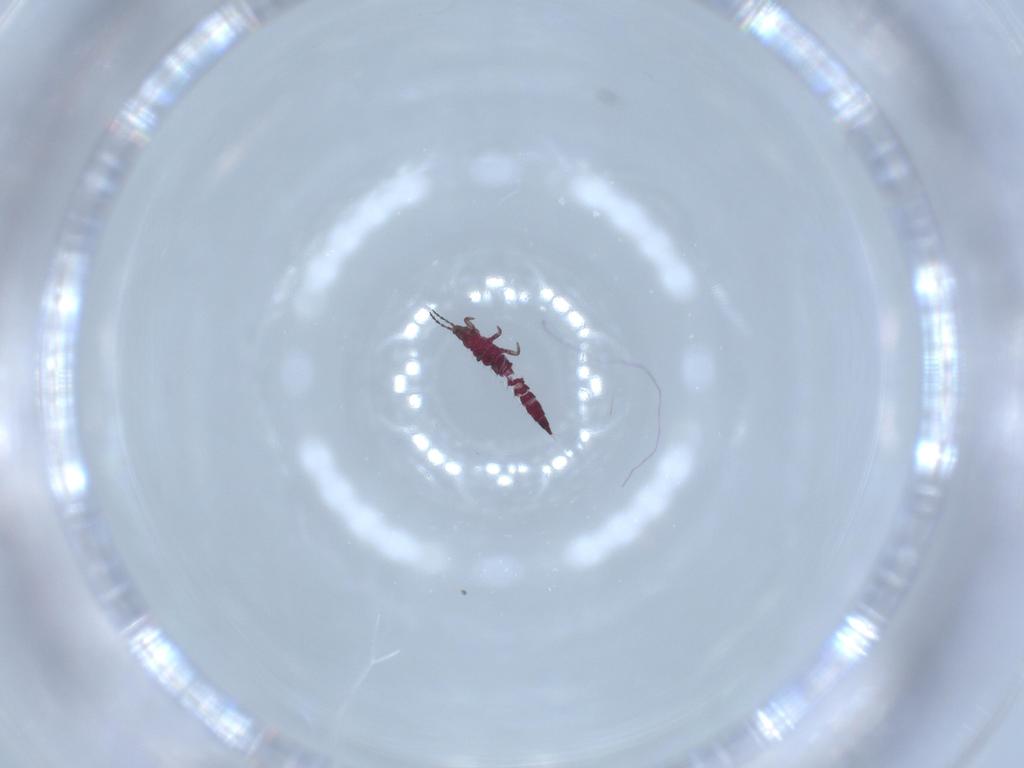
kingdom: Animalia
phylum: Arthropoda
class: Insecta
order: Thysanoptera
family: Phlaeothripidae
